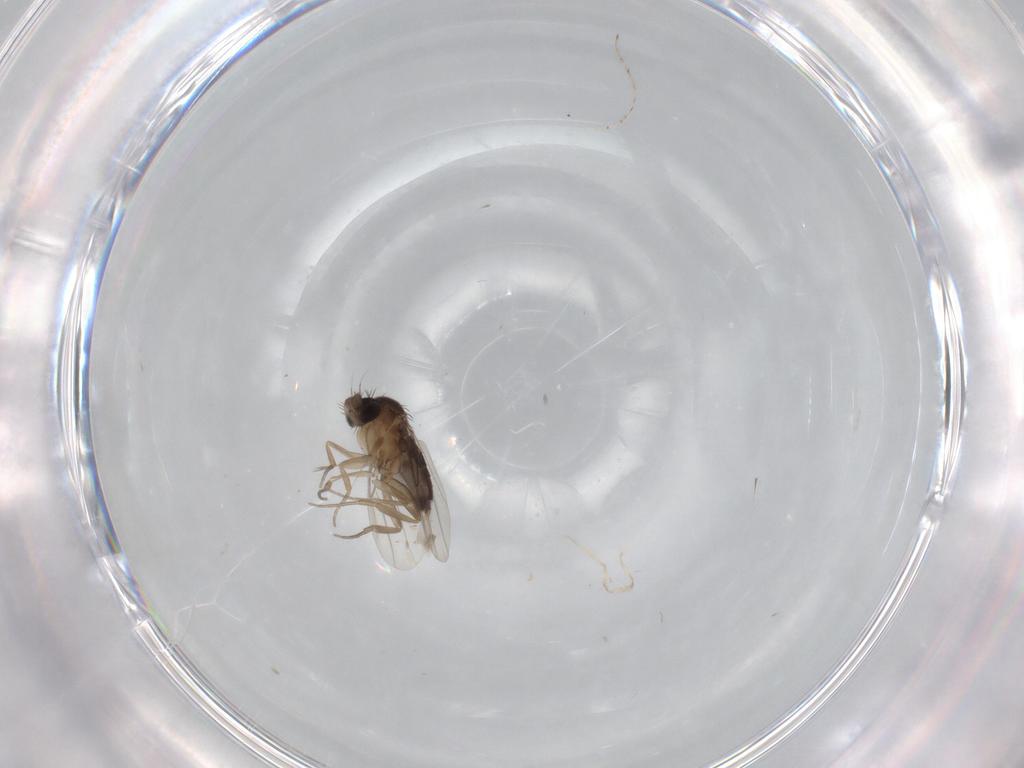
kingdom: Animalia
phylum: Arthropoda
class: Insecta
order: Diptera
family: Phoridae
